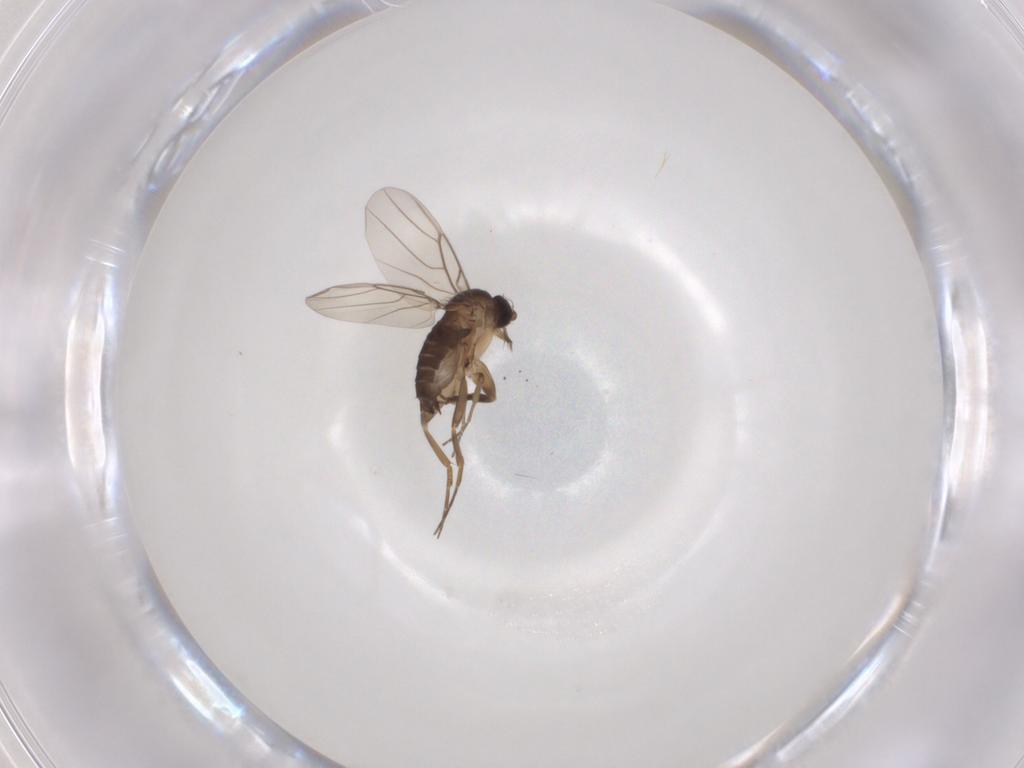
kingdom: Animalia
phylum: Arthropoda
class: Insecta
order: Diptera
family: Phoridae
